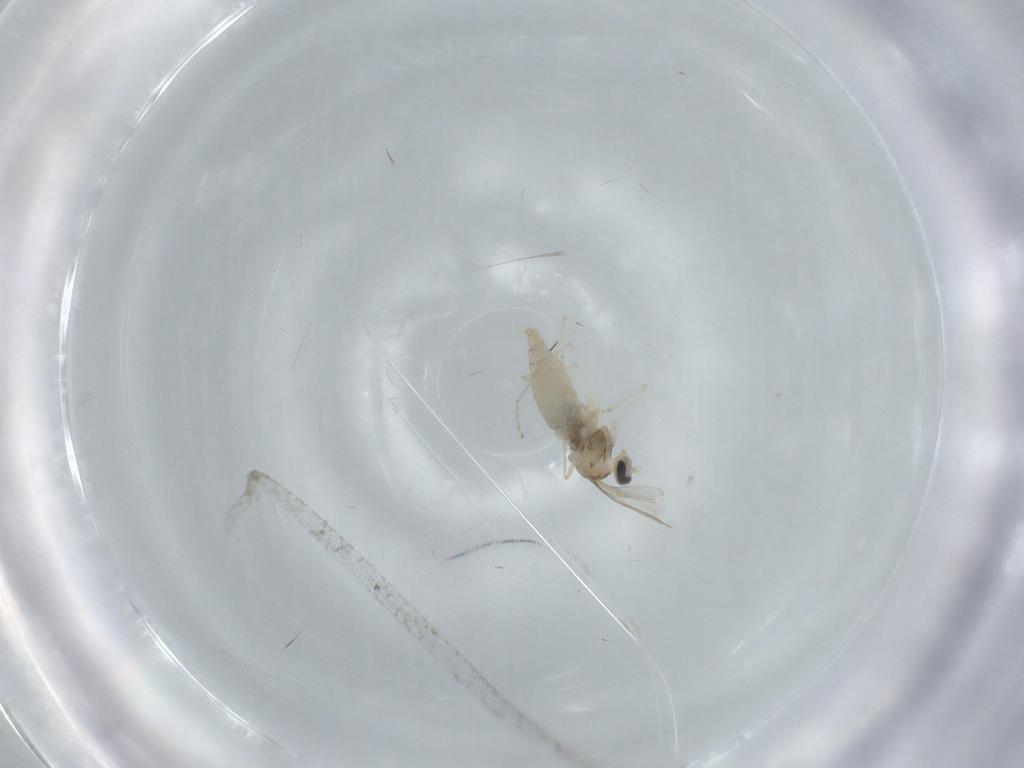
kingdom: Animalia
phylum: Arthropoda
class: Insecta
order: Diptera
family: Cecidomyiidae
